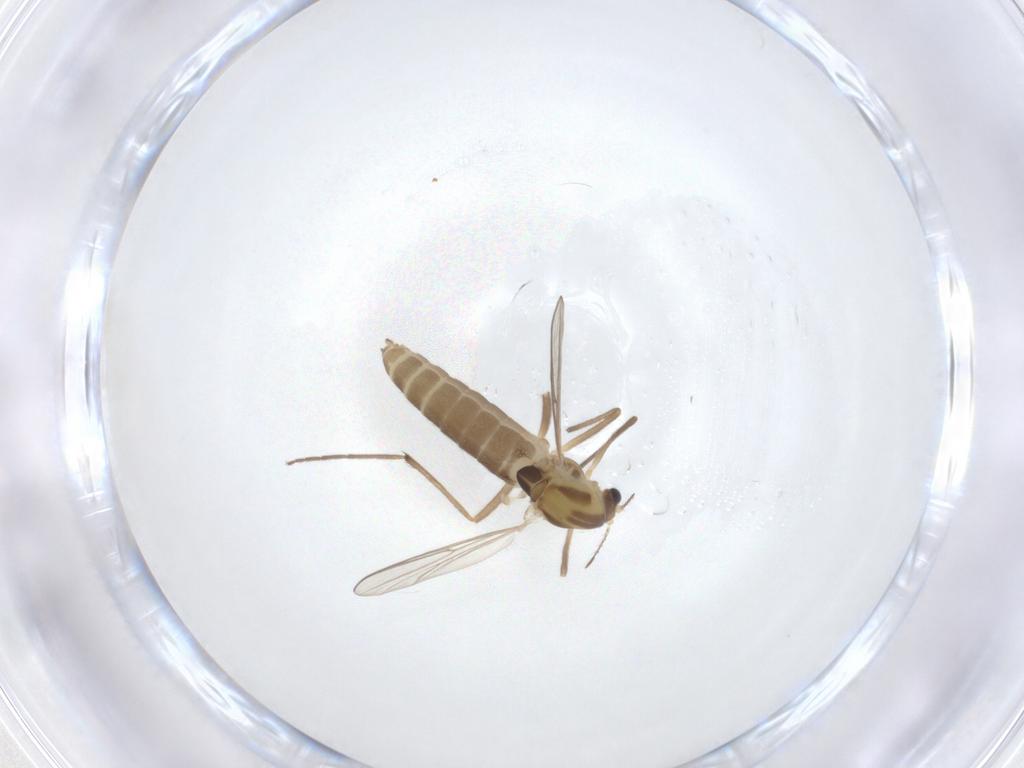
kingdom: Animalia
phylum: Arthropoda
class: Insecta
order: Diptera
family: Chironomidae
